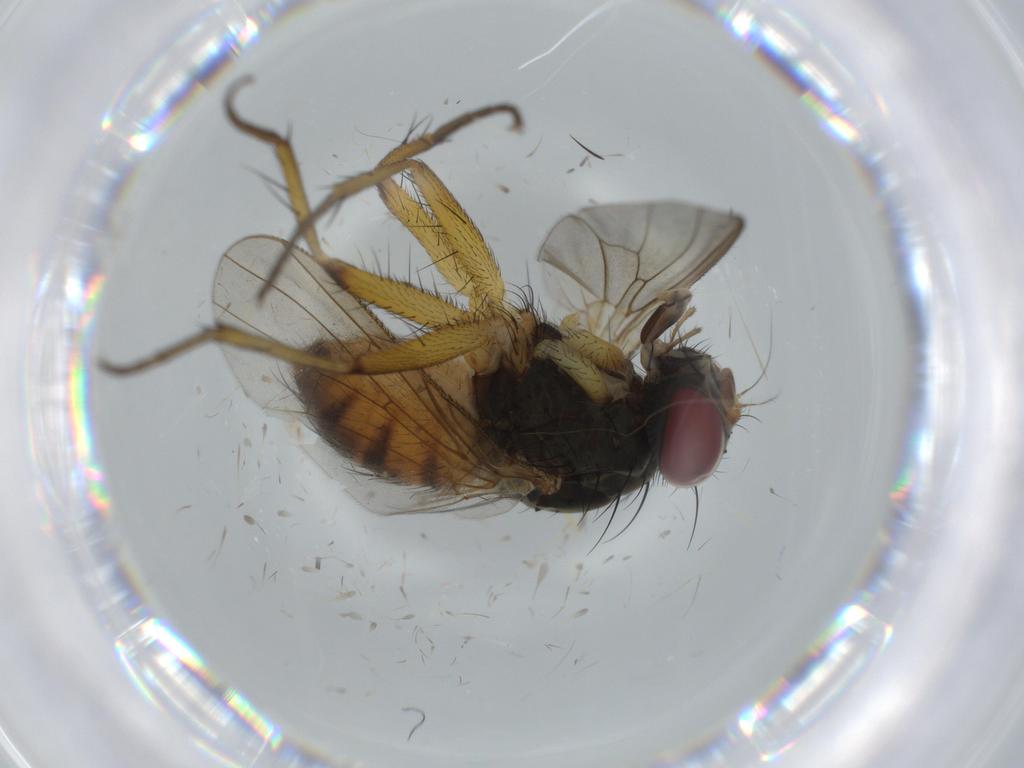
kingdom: Animalia
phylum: Arthropoda
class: Insecta
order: Diptera
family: Muscidae
